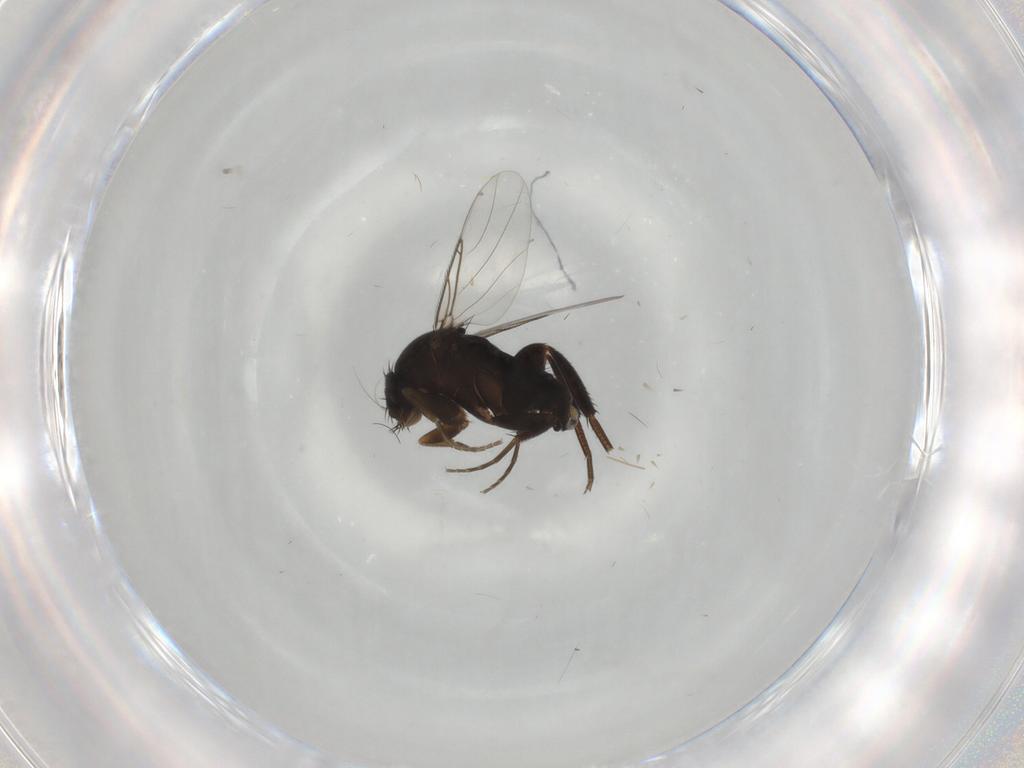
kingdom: Animalia
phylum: Arthropoda
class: Insecta
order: Diptera
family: Phoridae
